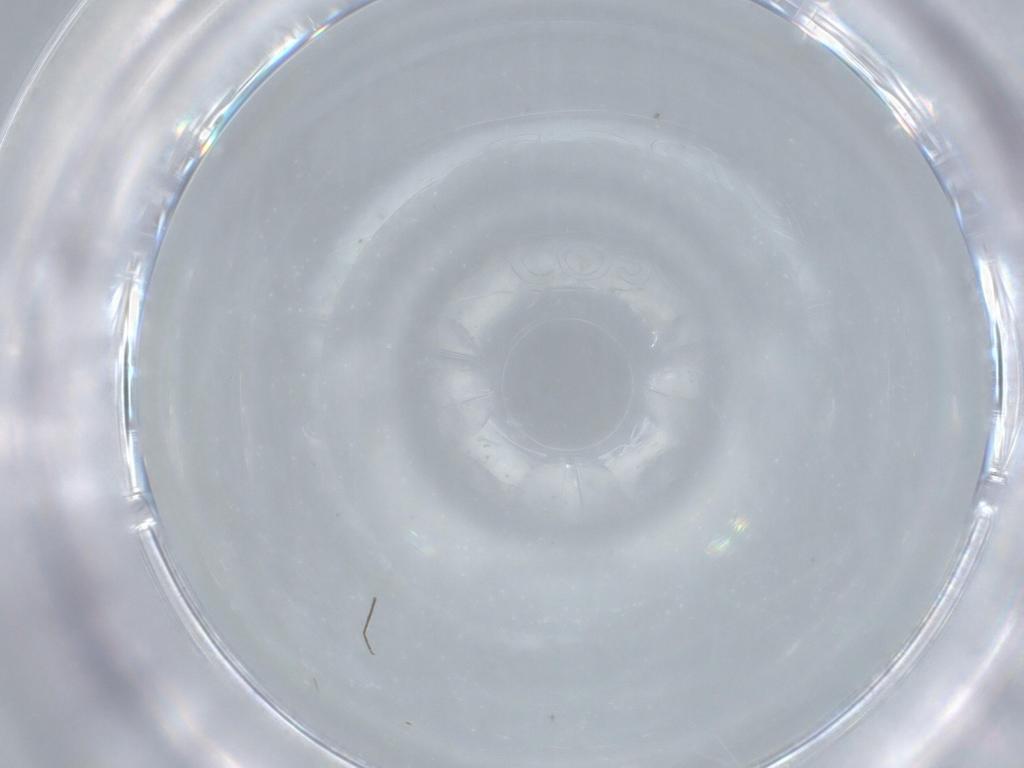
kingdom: Animalia
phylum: Arthropoda
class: Insecta
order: Diptera
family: Chironomidae
